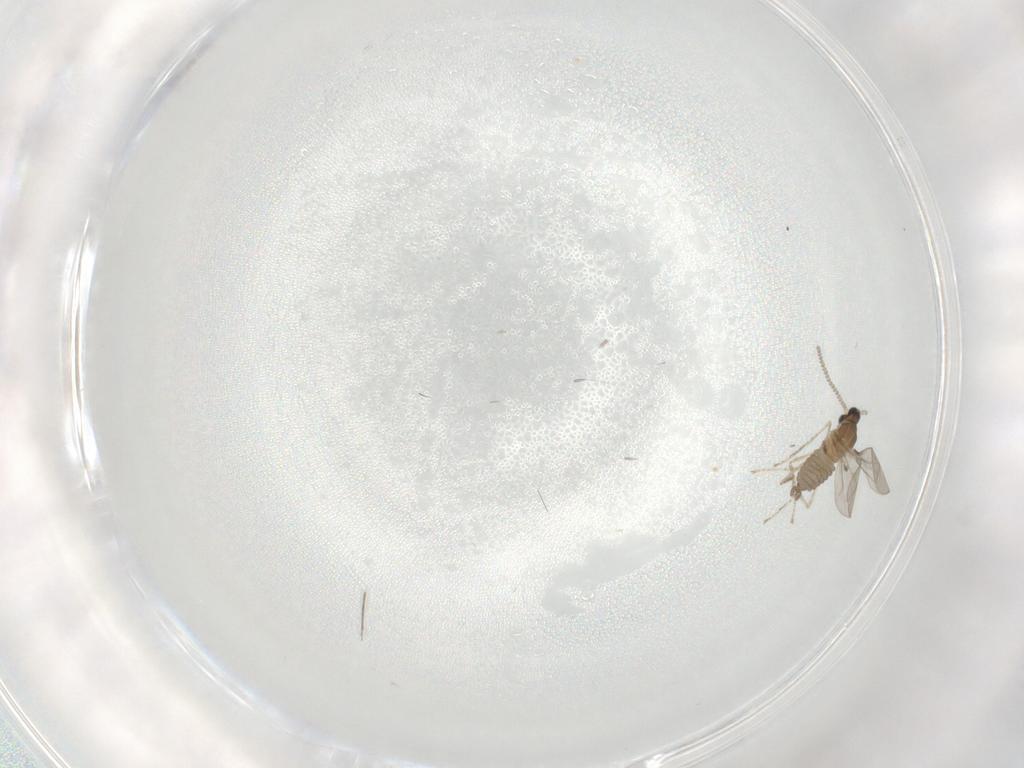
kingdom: Animalia
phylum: Arthropoda
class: Insecta
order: Diptera
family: Cecidomyiidae
